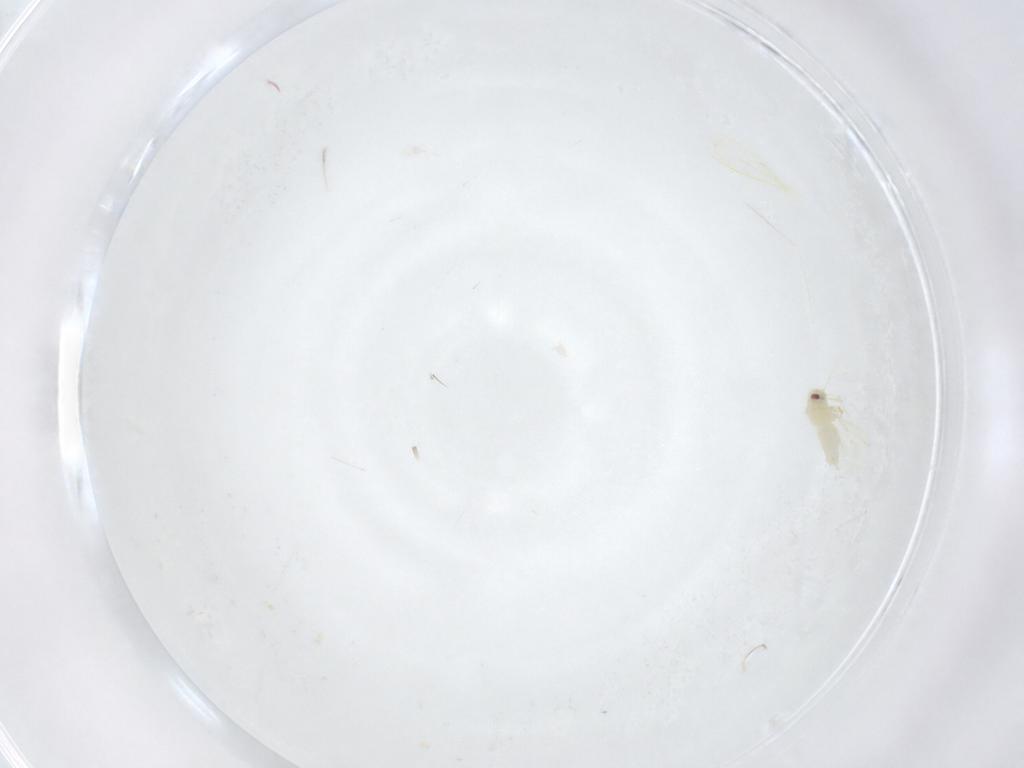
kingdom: Animalia
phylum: Arthropoda
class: Insecta
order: Hemiptera
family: Aleyrodidae
